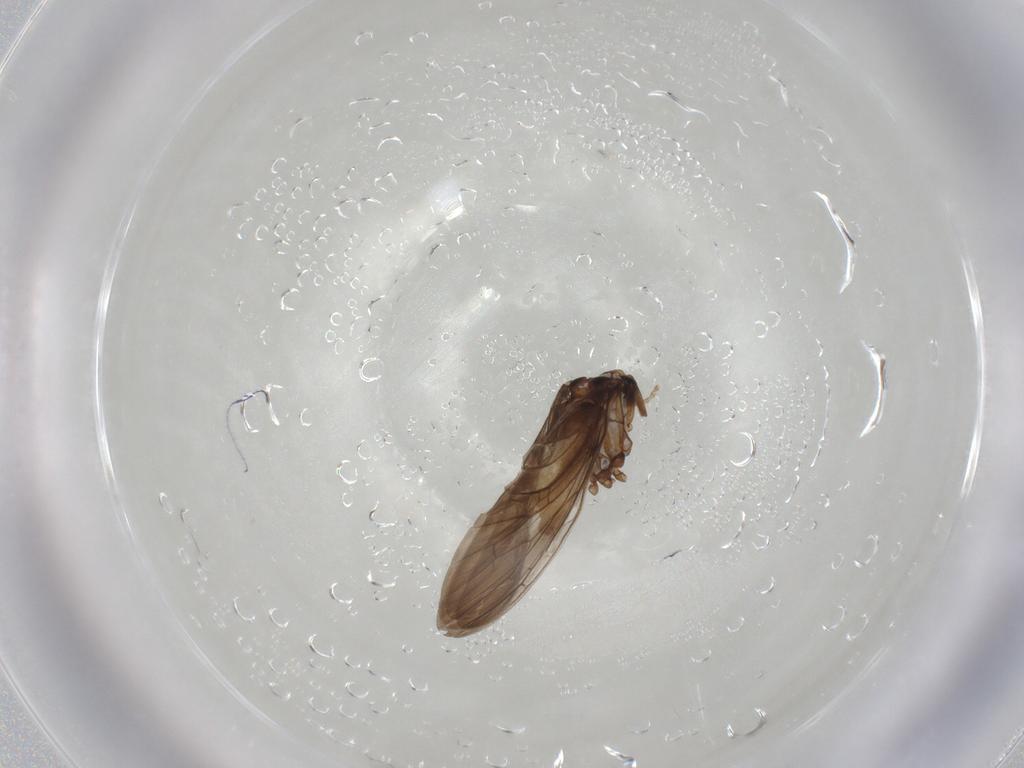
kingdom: Animalia
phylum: Arthropoda
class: Insecta
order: Neuroptera
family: Coniopterygidae
